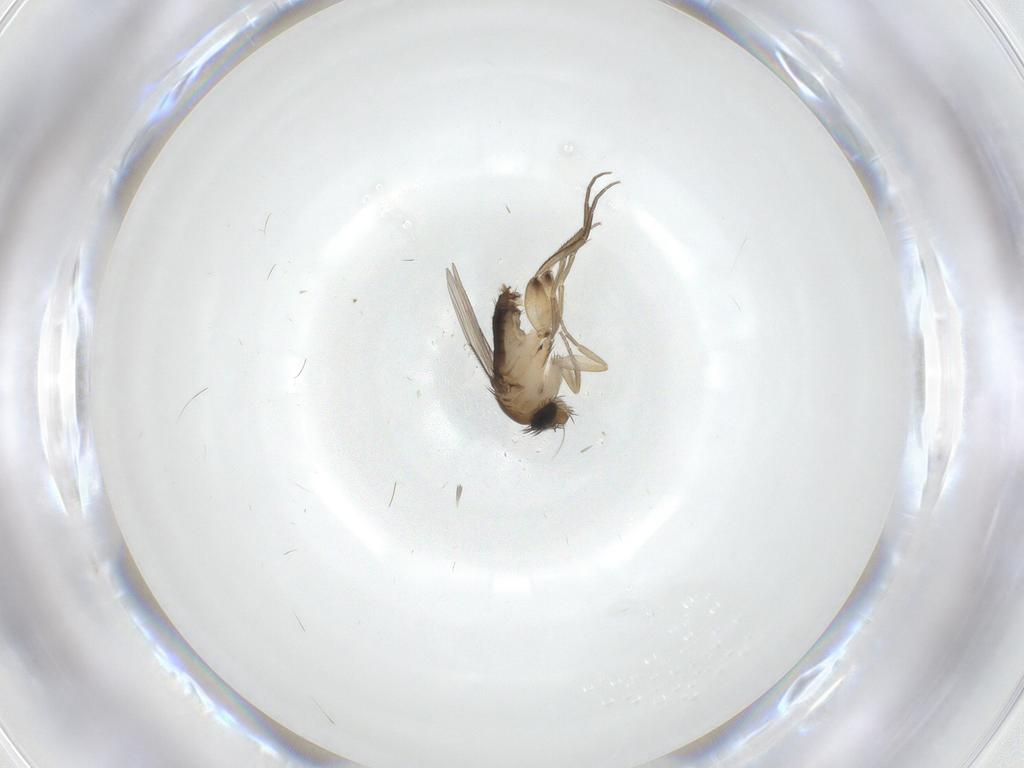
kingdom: Animalia
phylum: Arthropoda
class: Insecta
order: Diptera
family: Phoridae
